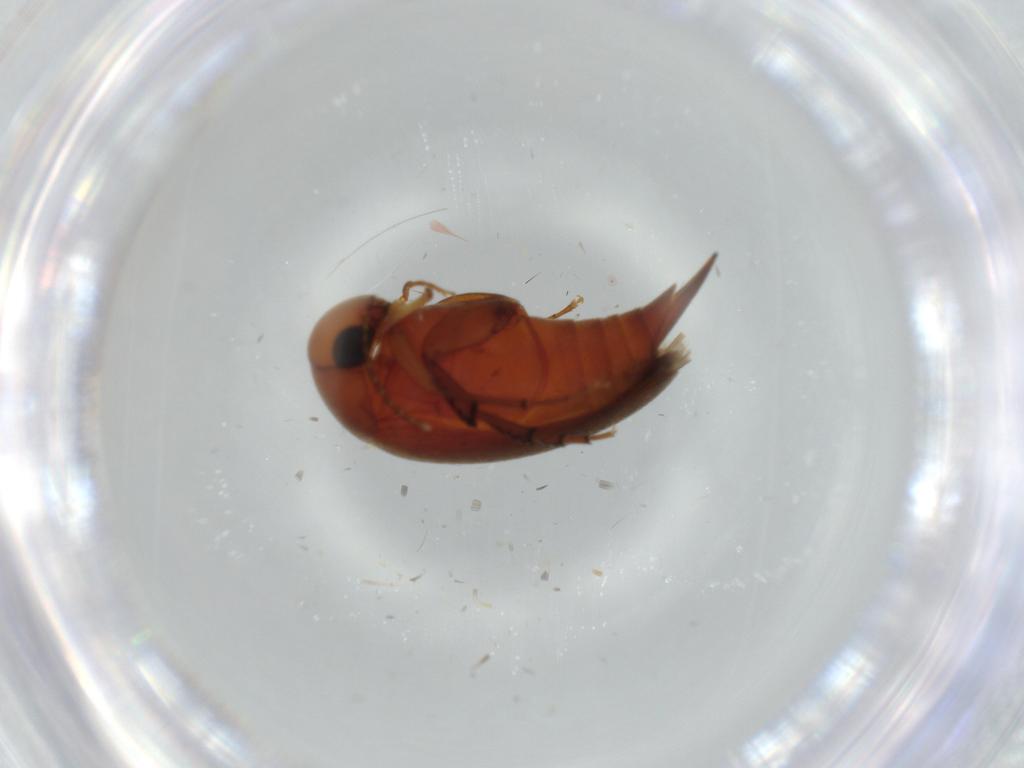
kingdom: Animalia
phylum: Arthropoda
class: Insecta
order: Coleoptera
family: Mordellidae
